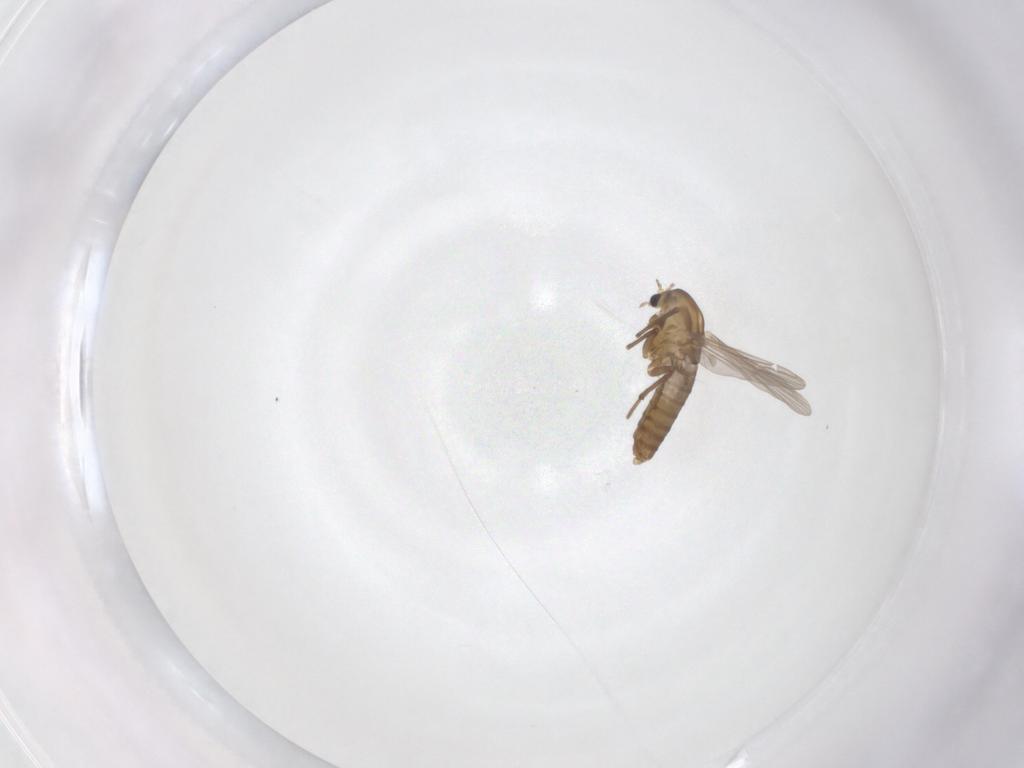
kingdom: Animalia
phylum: Arthropoda
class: Insecta
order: Diptera
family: Chironomidae
